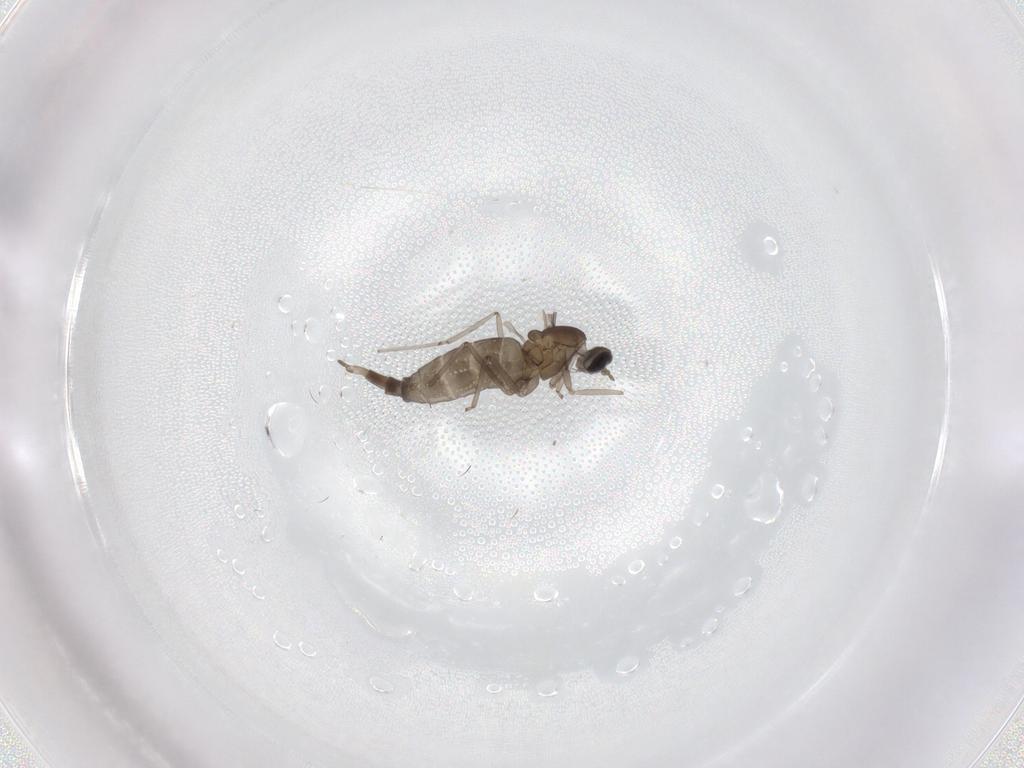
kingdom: Animalia
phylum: Arthropoda
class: Insecta
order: Diptera
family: Cecidomyiidae
